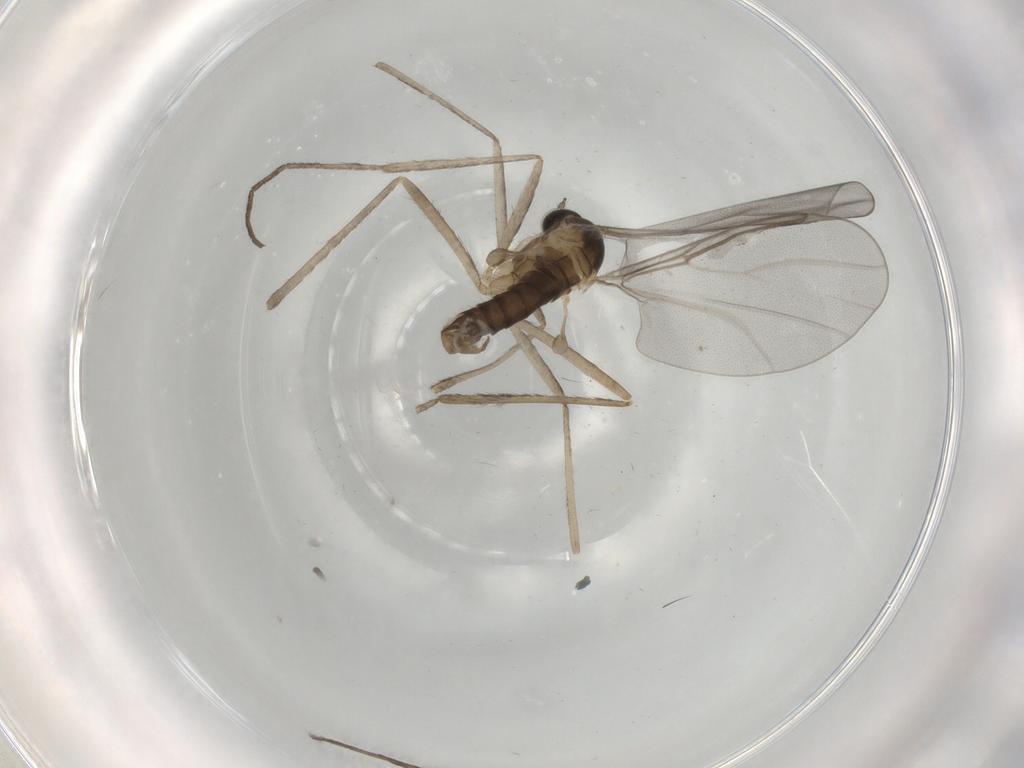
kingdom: Animalia
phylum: Arthropoda
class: Insecta
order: Diptera
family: Cecidomyiidae
